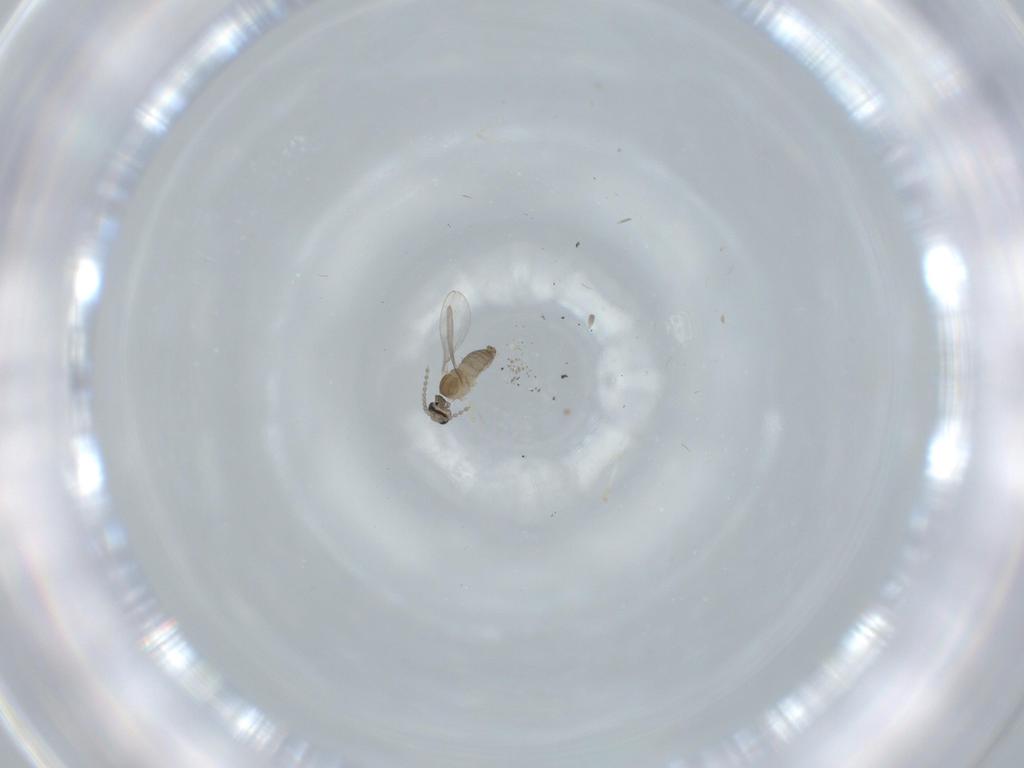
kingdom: Animalia
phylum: Arthropoda
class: Insecta
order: Diptera
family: Cecidomyiidae
